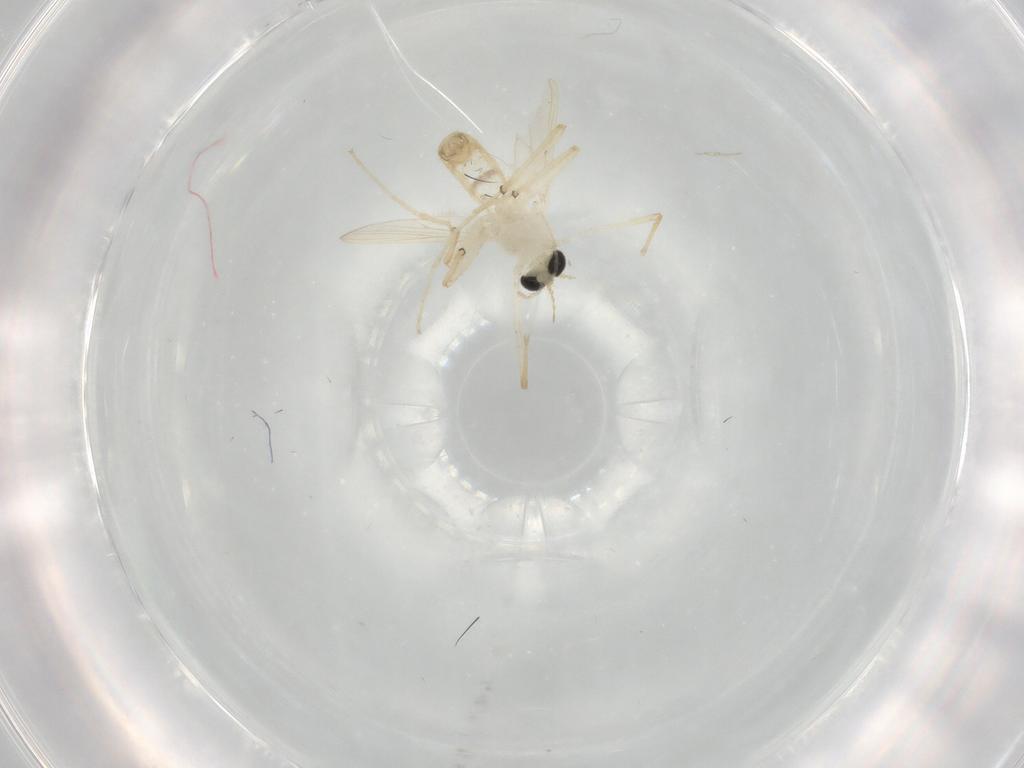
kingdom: Animalia
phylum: Arthropoda
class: Insecta
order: Diptera
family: Chironomidae
